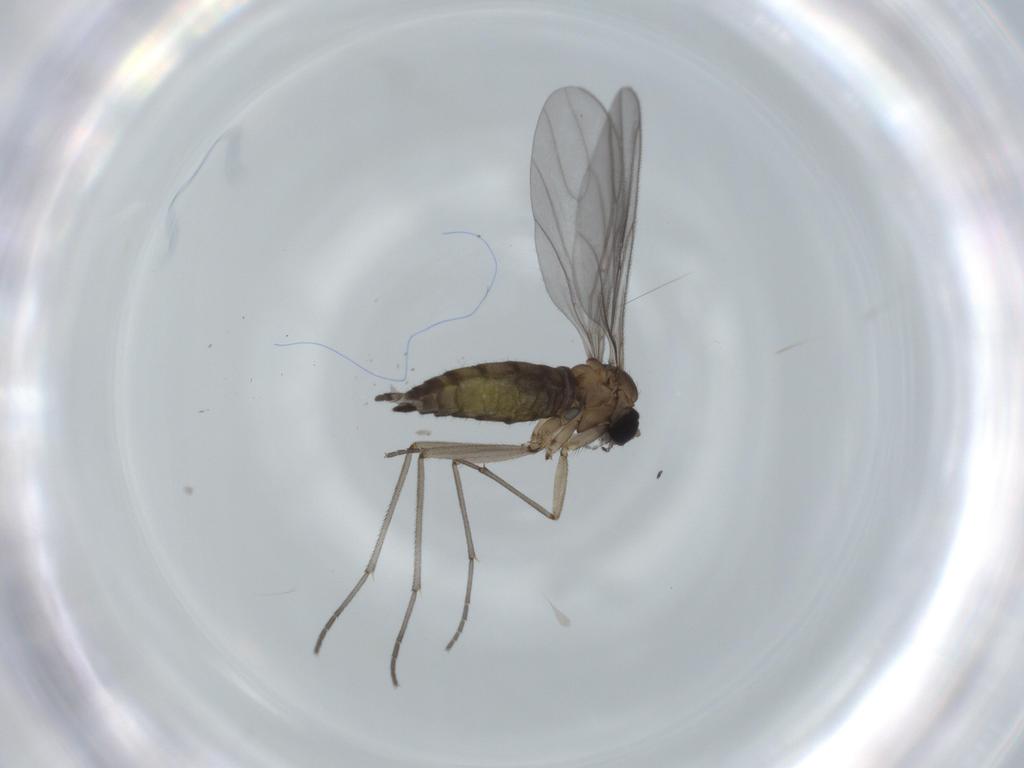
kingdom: Animalia
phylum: Arthropoda
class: Insecta
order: Diptera
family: Sciaridae
